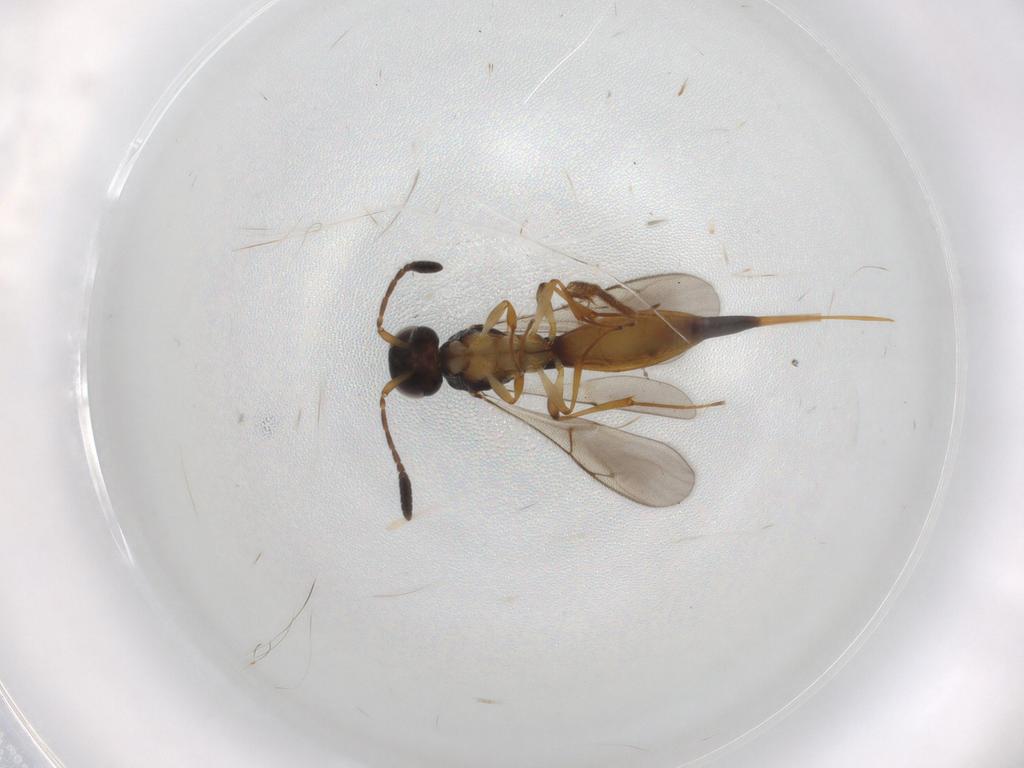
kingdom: Animalia
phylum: Arthropoda
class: Insecta
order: Hymenoptera
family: Scelionidae
